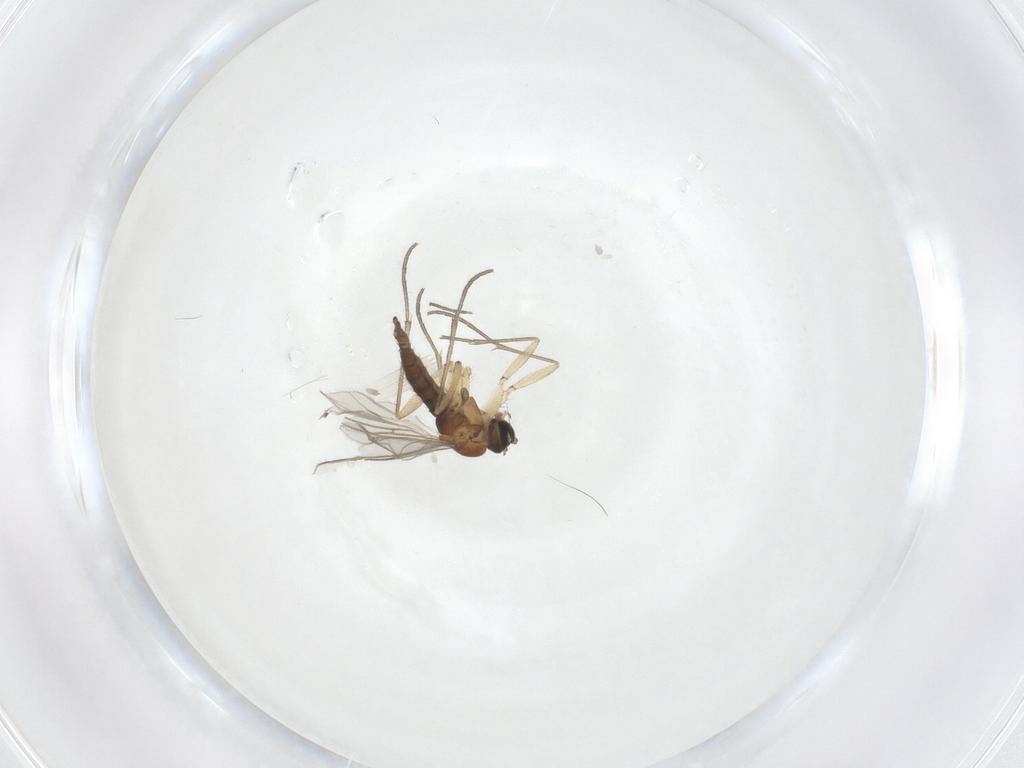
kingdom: Animalia
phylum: Arthropoda
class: Insecta
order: Diptera
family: Sciaridae
